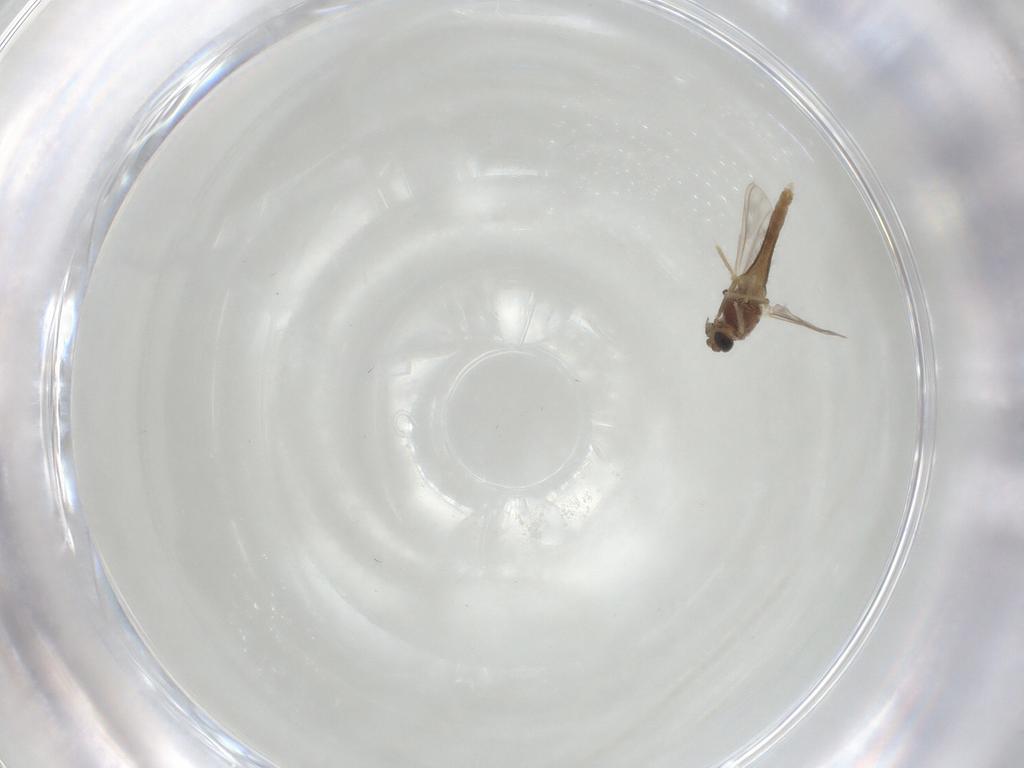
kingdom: Animalia
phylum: Arthropoda
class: Insecta
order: Diptera
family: Chironomidae
